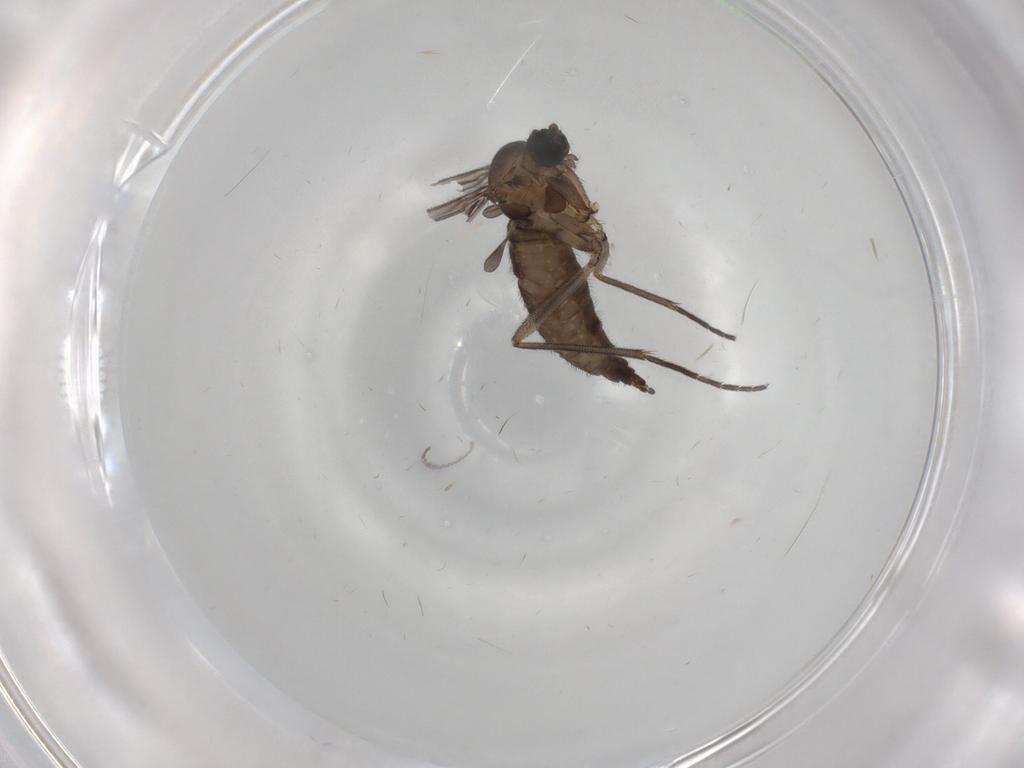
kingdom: Animalia
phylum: Arthropoda
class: Insecta
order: Diptera
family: Sciaridae
